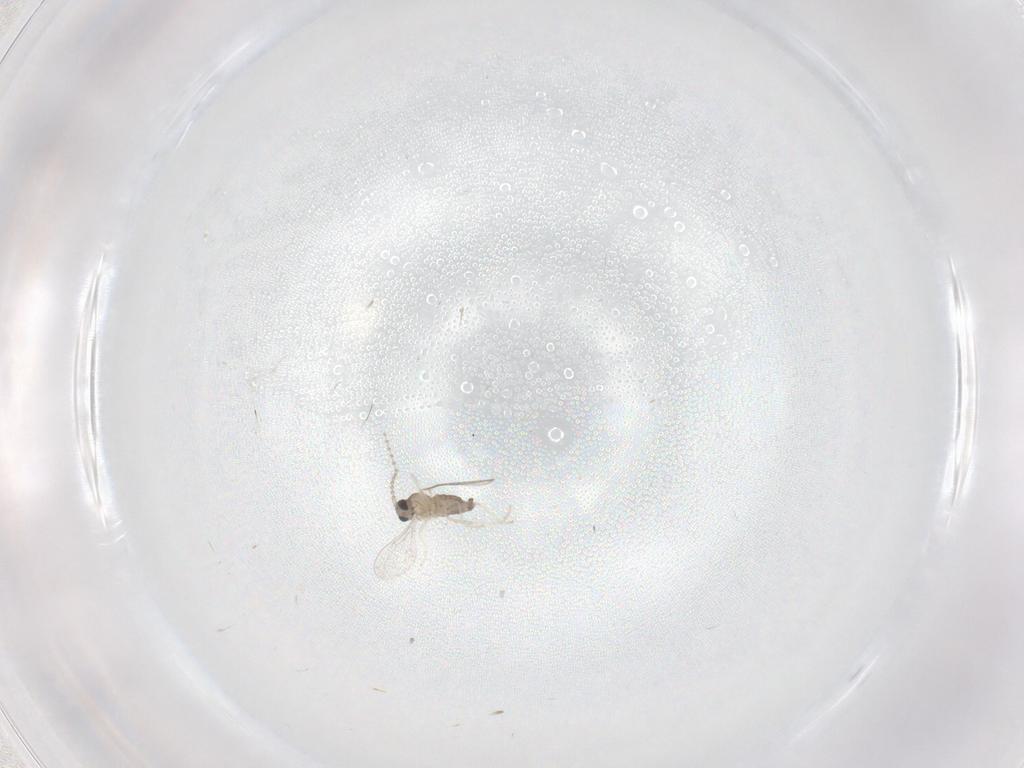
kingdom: Animalia
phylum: Arthropoda
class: Insecta
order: Diptera
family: Cecidomyiidae
